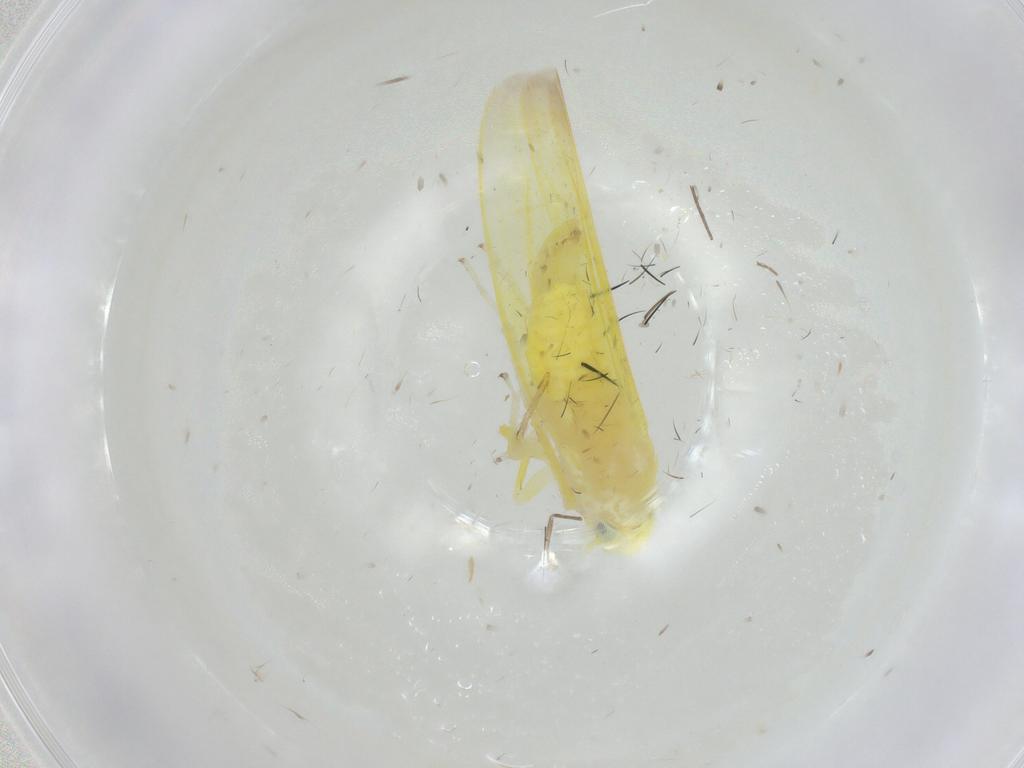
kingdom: Animalia
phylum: Arthropoda
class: Insecta
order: Hemiptera
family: Cicadellidae
